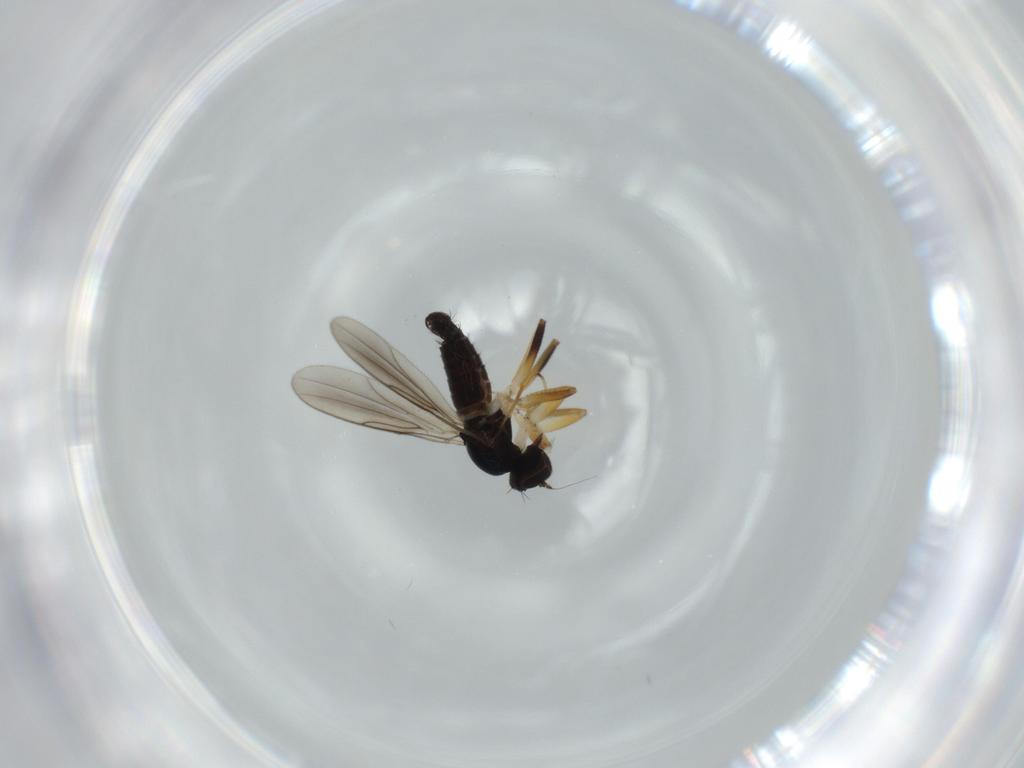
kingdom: Animalia
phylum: Arthropoda
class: Insecta
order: Diptera
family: Hybotidae
